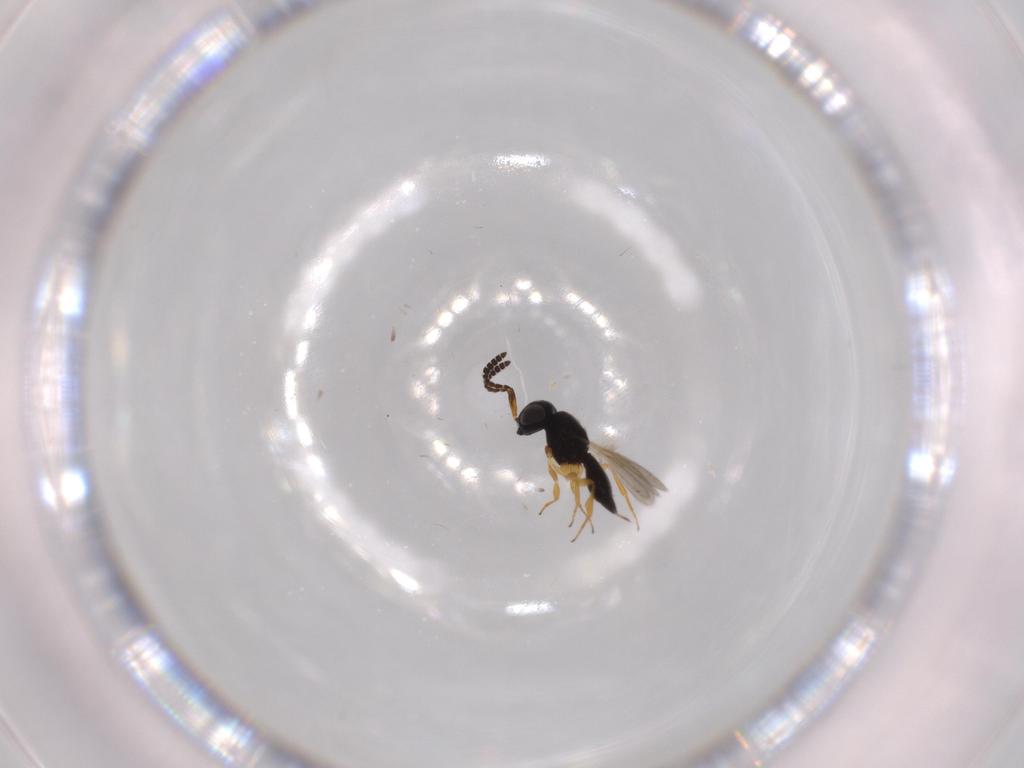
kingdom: Animalia
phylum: Arthropoda
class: Insecta
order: Hymenoptera
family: Scelionidae
